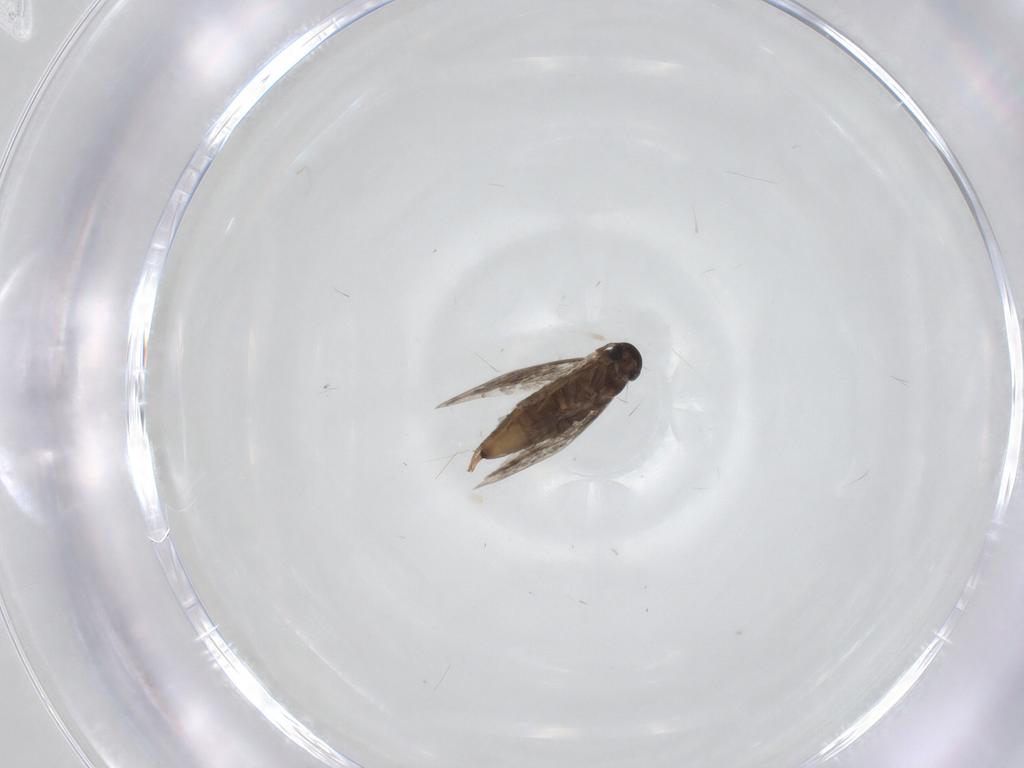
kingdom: Animalia
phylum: Arthropoda
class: Insecta
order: Lepidoptera
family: Heliozelidae
